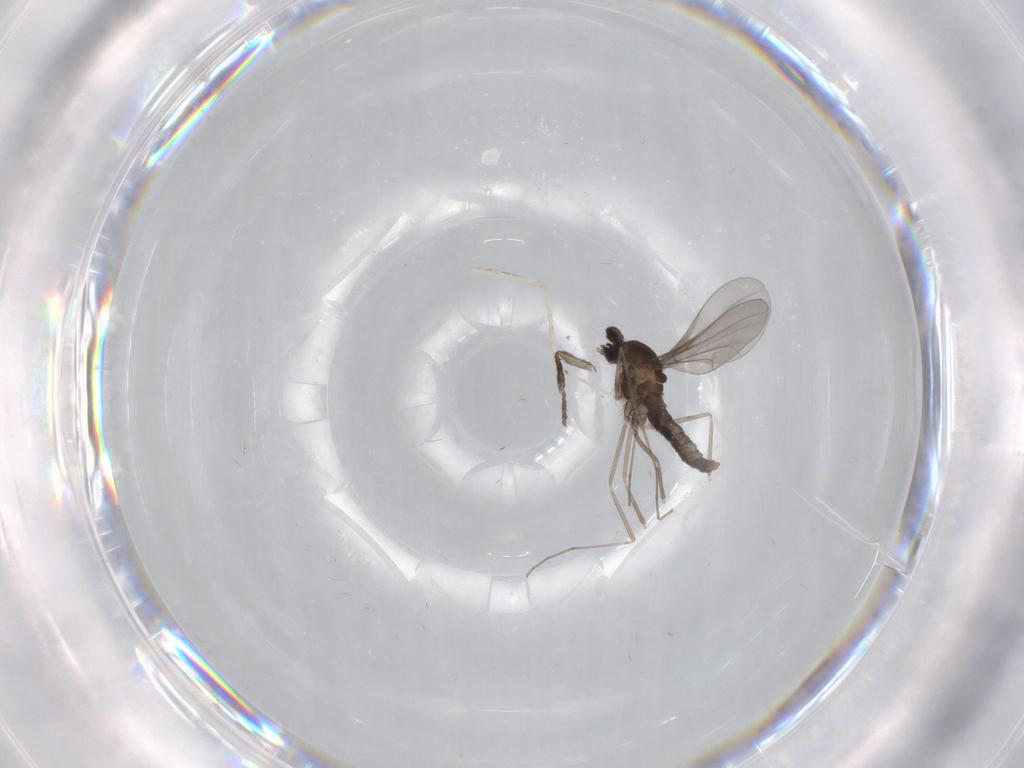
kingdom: Animalia
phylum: Arthropoda
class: Insecta
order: Diptera
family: Cecidomyiidae
